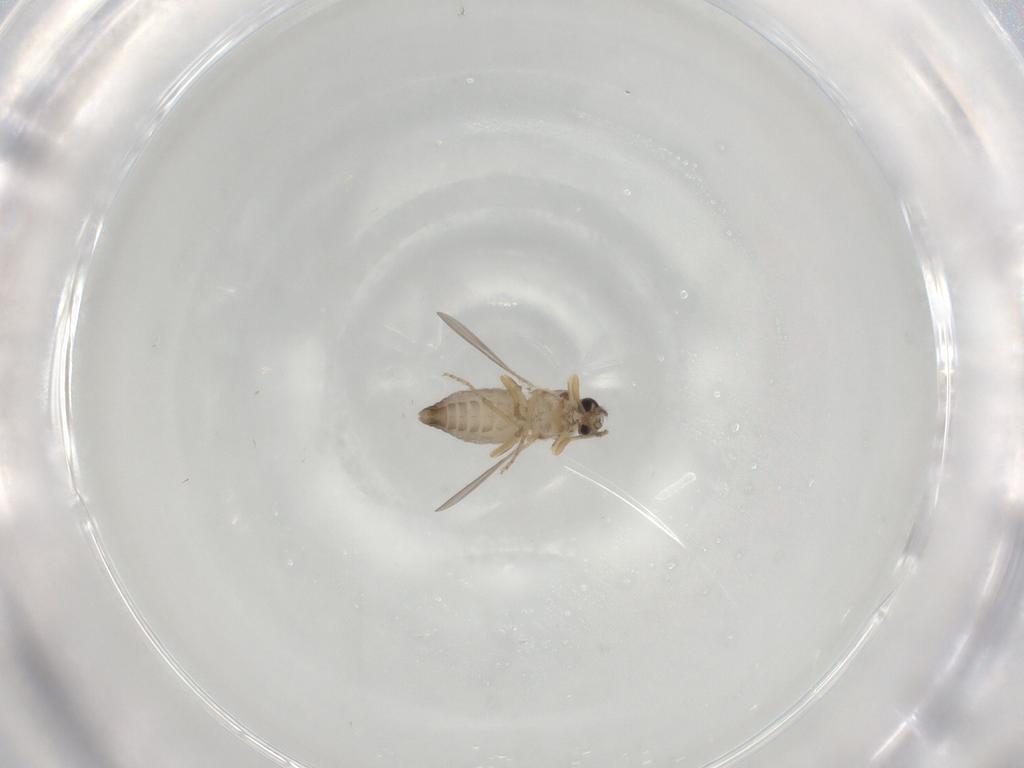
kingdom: Animalia
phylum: Arthropoda
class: Insecta
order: Diptera
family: Ceratopogonidae
